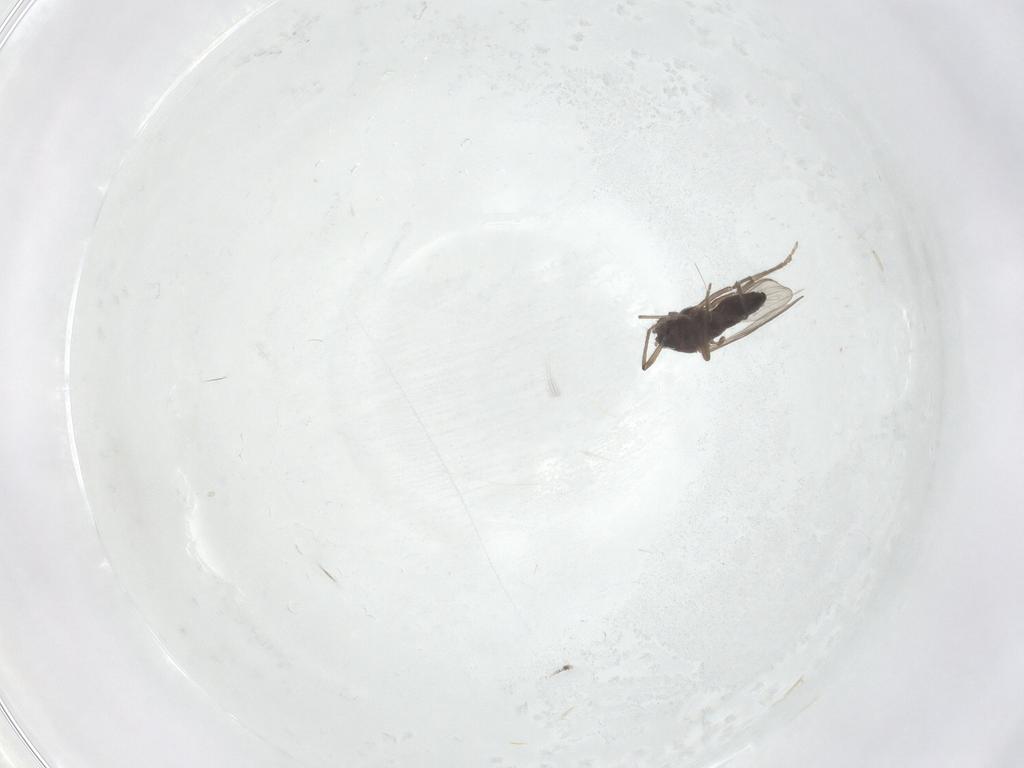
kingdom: Animalia
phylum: Arthropoda
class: Insecta
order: Diptera
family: Chironomidae
